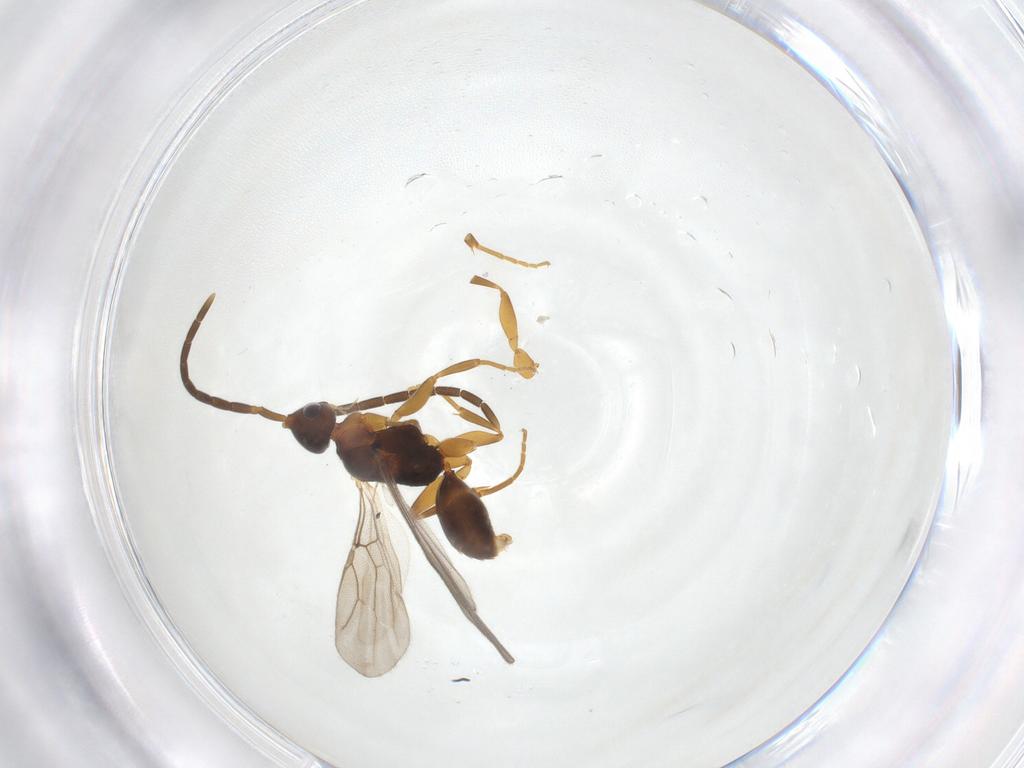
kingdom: Animalia
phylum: Arthropoda
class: Insecta
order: Hymenoptera
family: Embolemidae
